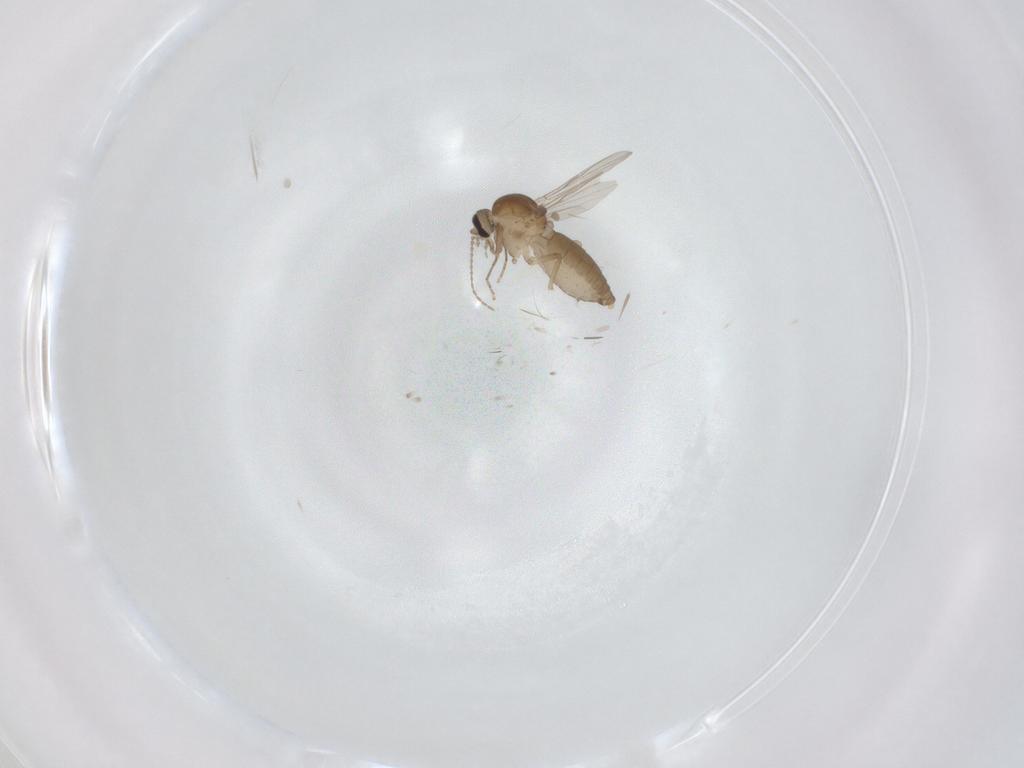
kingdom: Animalia
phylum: Arthropoda
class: Insecta
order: Diptera
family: Ceratopogonidae
